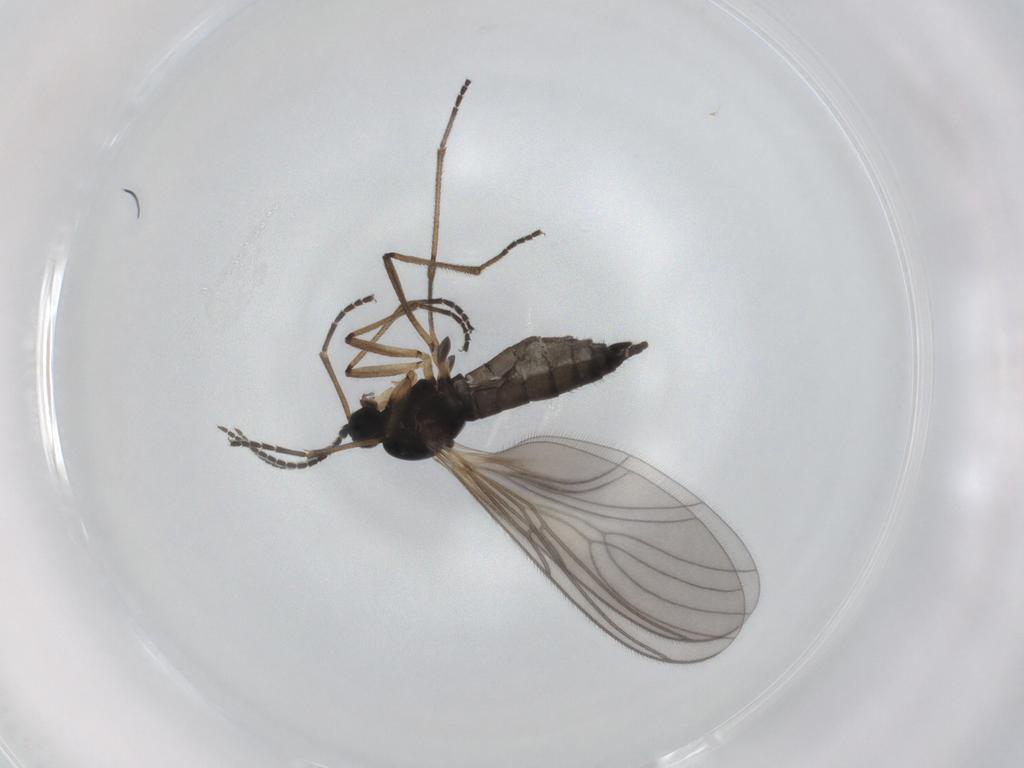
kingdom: Animalia
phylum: Arthropoda
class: Insecta
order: Diptera
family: Sciaridae
